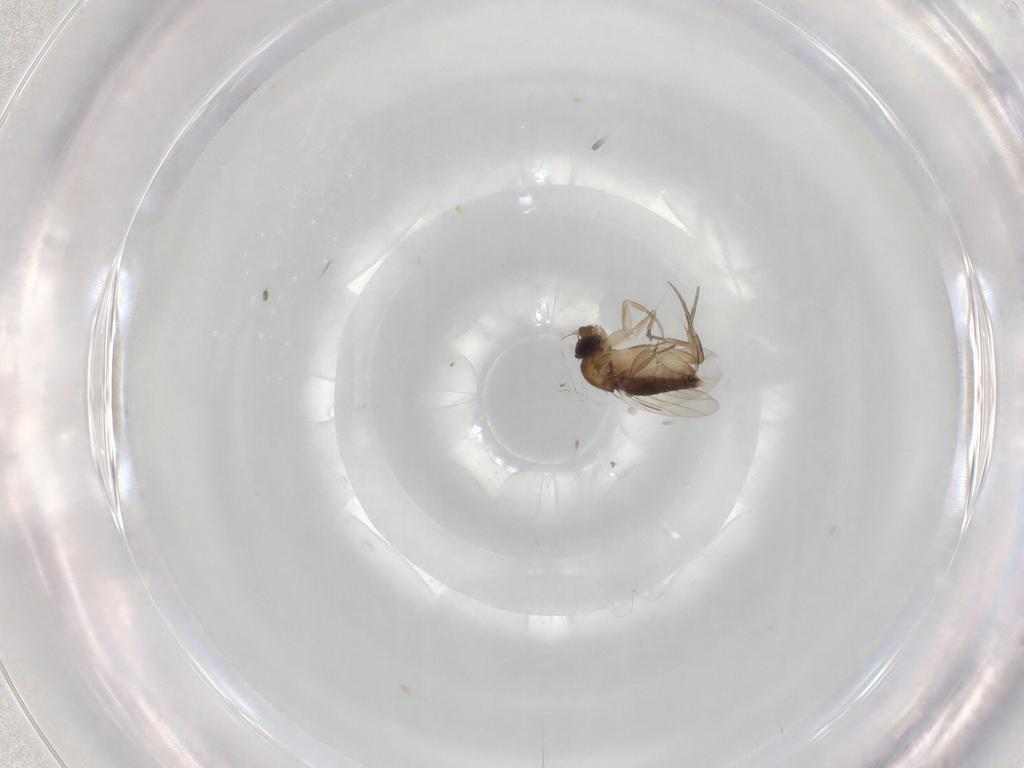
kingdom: Animalia
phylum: Arthropoda
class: Insecta
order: Diptera
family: Phoridae
